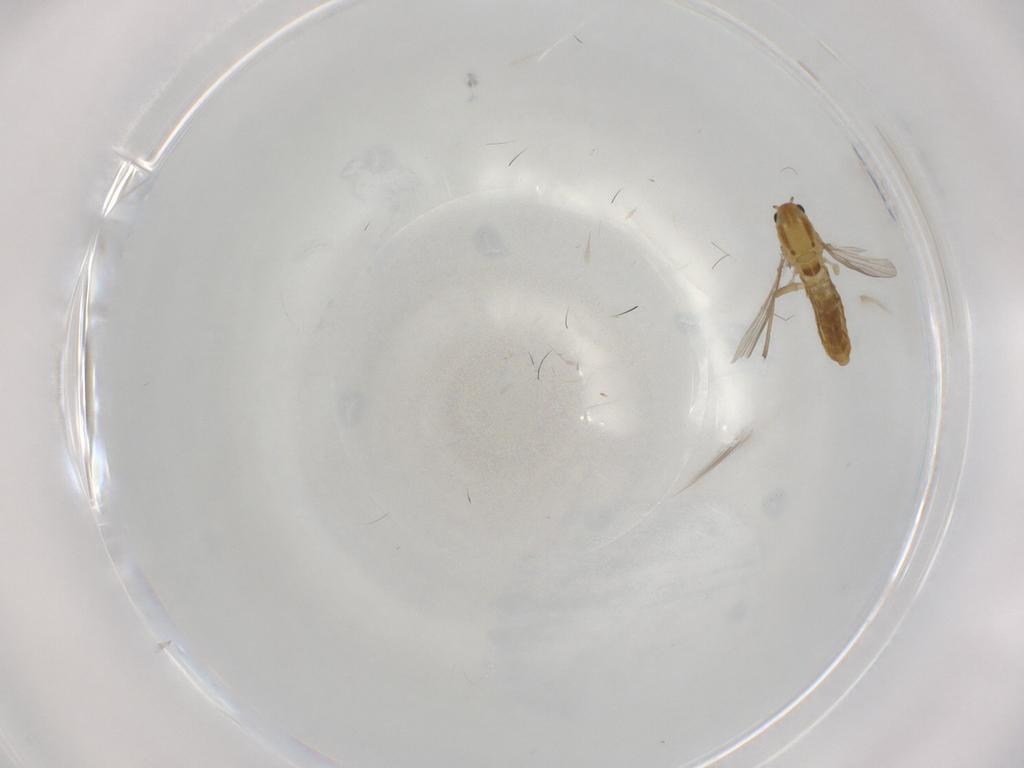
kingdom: Animalia
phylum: Arthropoda
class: Insecta
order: Diptera
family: Chironomidae
